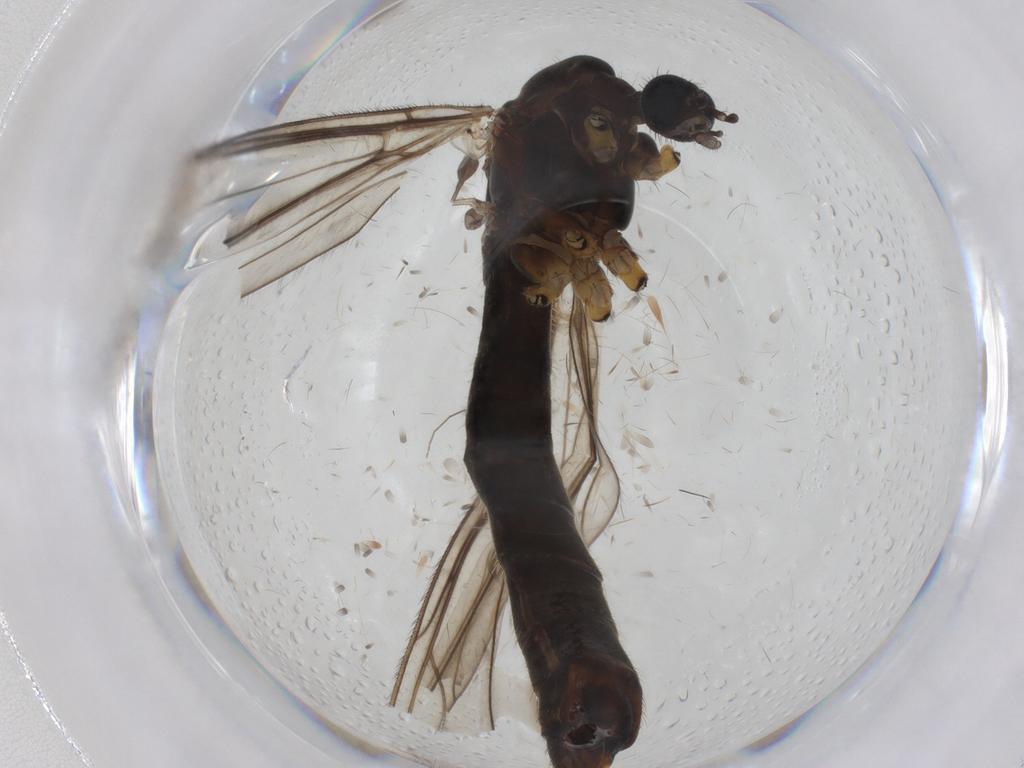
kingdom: Animalia
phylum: Arthropoda
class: Insecta
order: Diptera
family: Chironomidae
